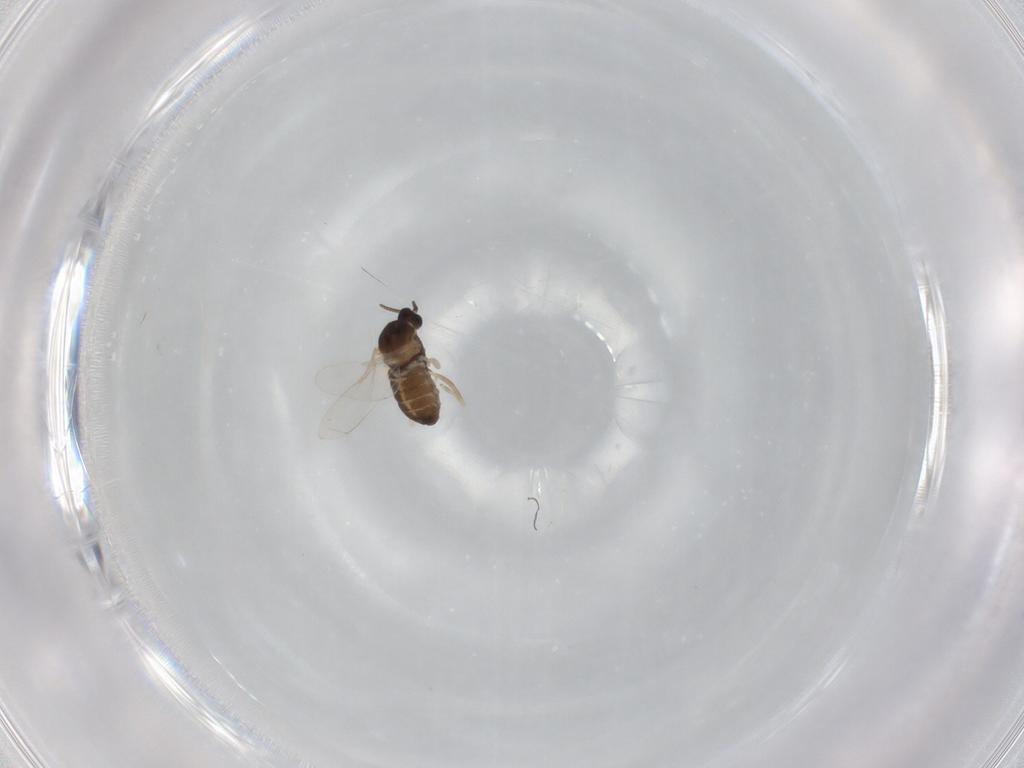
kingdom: Animalia
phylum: Arthropoda
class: Insecta
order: Diptera
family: Cecidomyiidae
